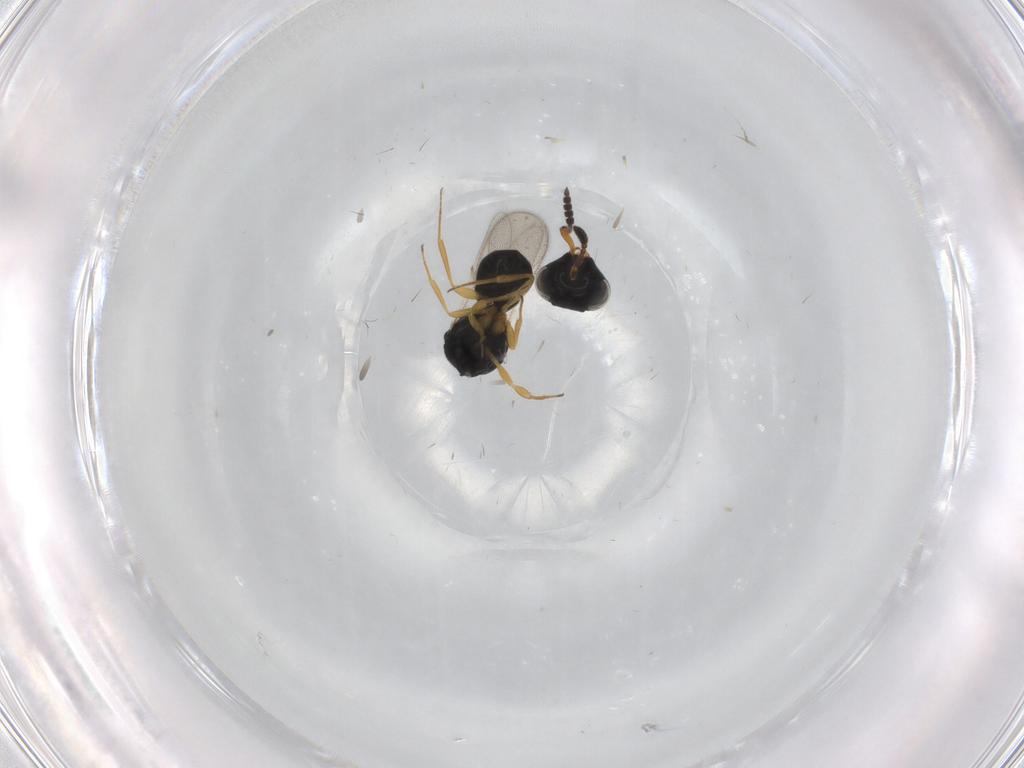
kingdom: Animalia
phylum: Arthropoda
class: Insecta
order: Hymenoptera
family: Scelionidae
